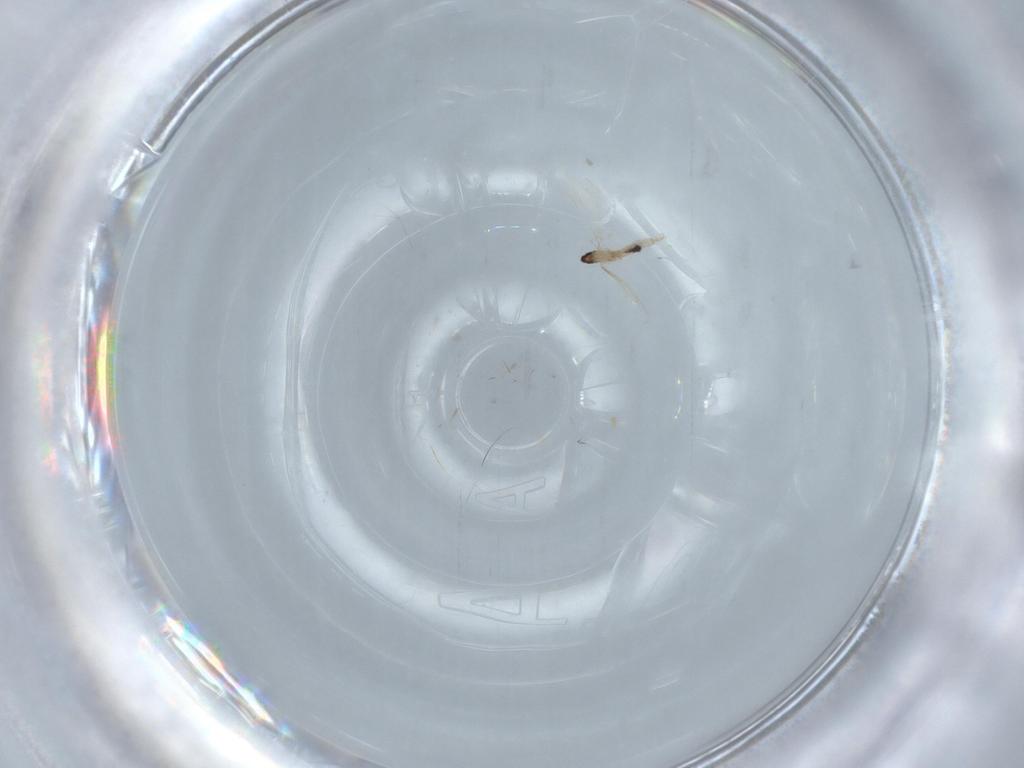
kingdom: Animalia
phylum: Arthropoda
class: Insecta
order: Diptera
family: Cecidomyiidae
